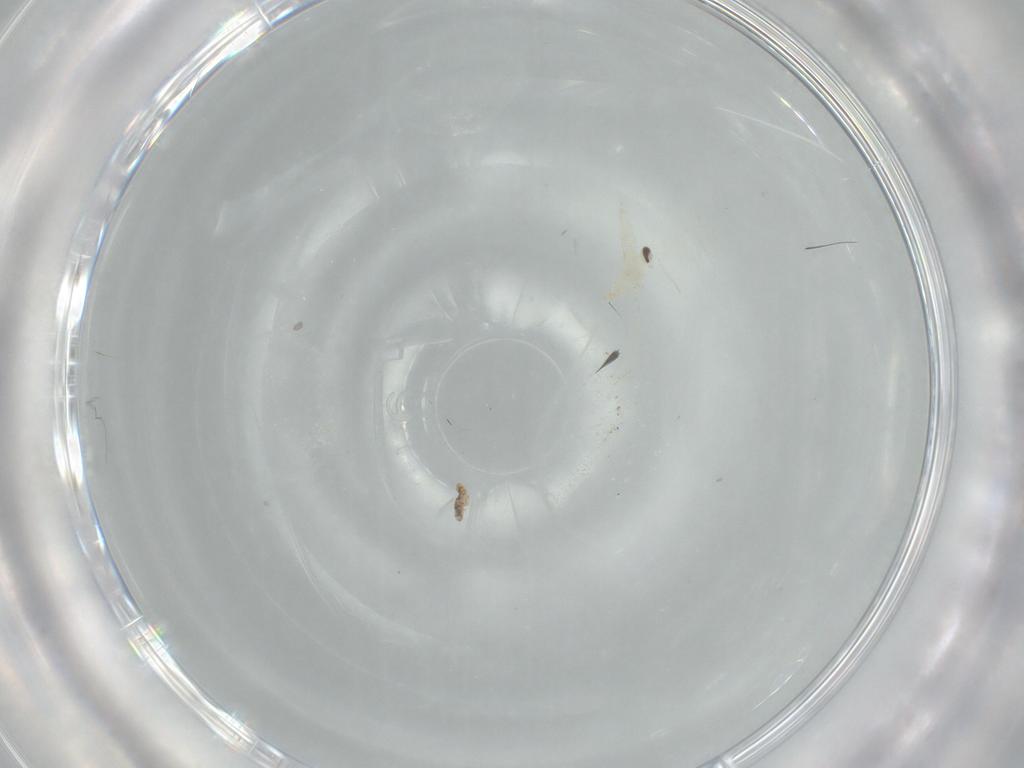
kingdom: Animalia
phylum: Arthropoda
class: Insecta
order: Diptera
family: Cecidomyiidae
